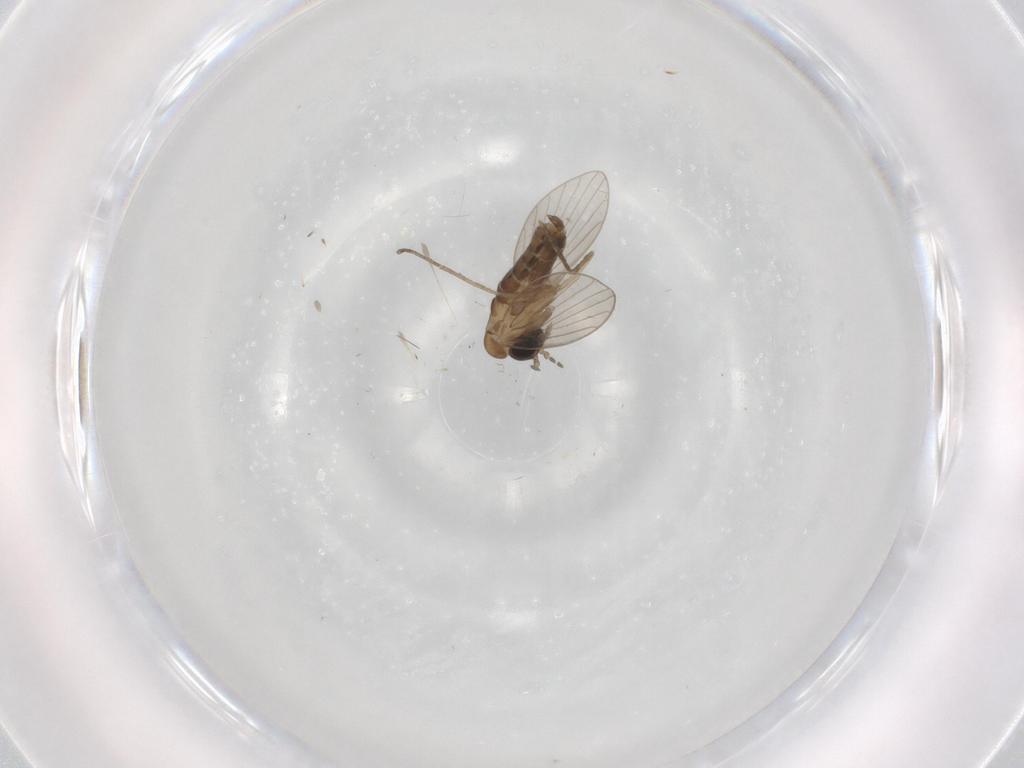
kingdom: Animalia
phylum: Arthropoda
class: Insecta
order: Diptera
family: Psychodidae
